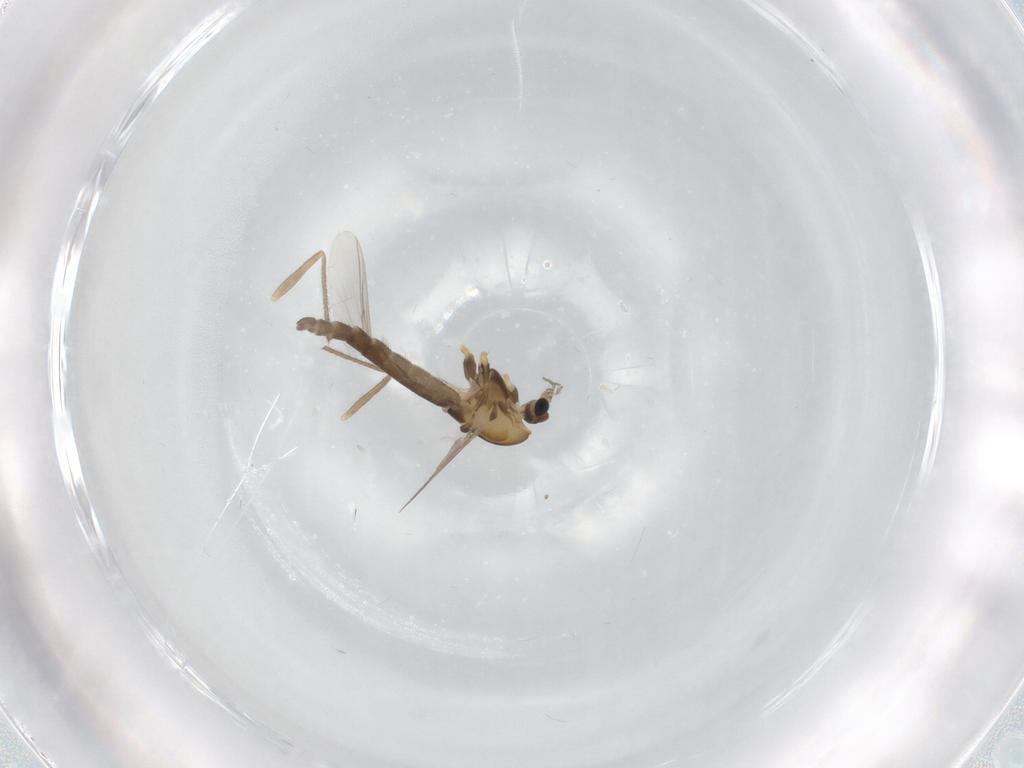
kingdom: Animalia
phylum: Arthropoda
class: Insecta
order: Diptera
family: Chironomidae
